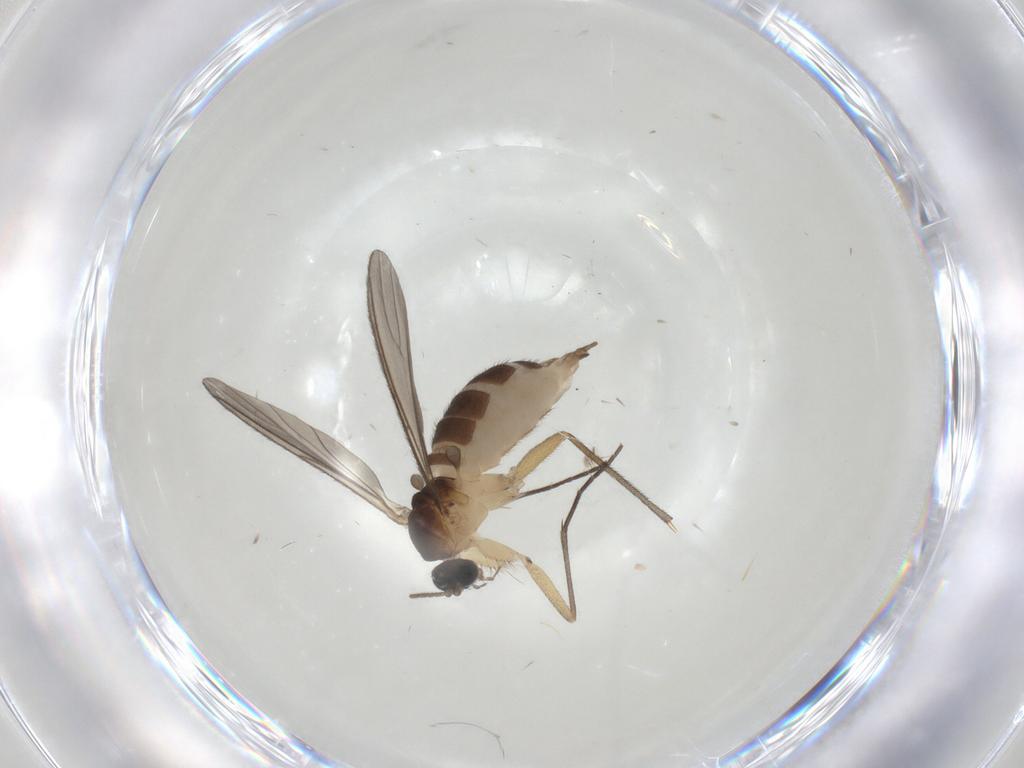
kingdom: Animalia
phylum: Arthropoda
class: Insecta
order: Diptera
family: Sciaridae
